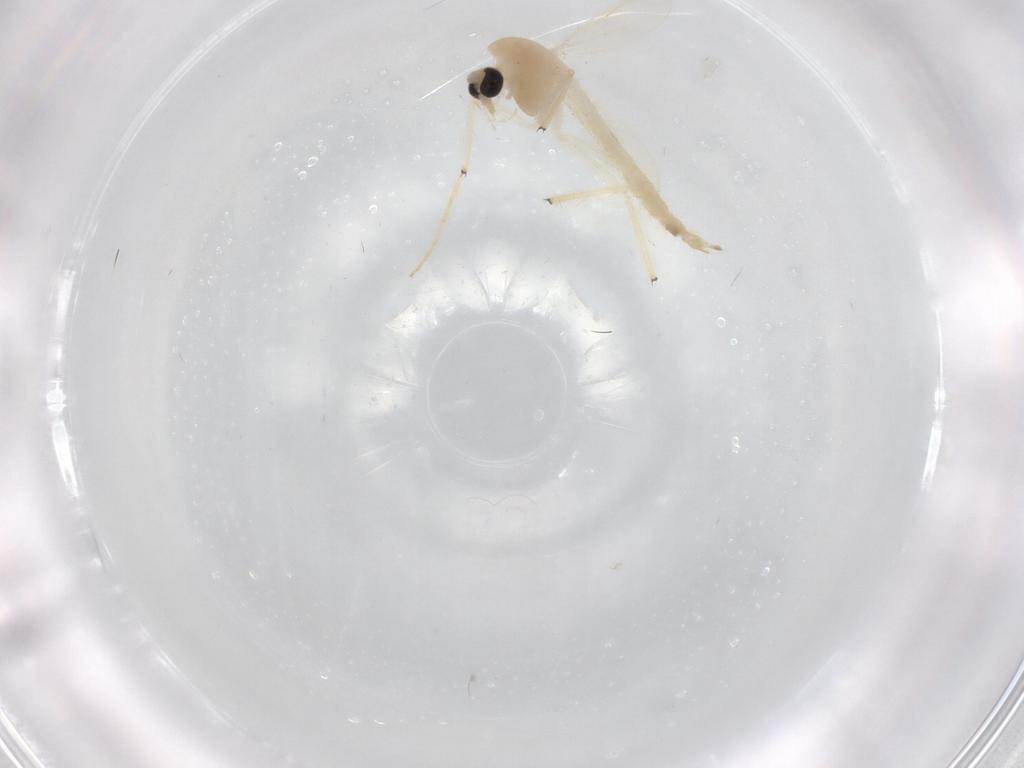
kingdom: Animalia
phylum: Arthropoda
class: Insecta
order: Diptera
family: Chironomidae
